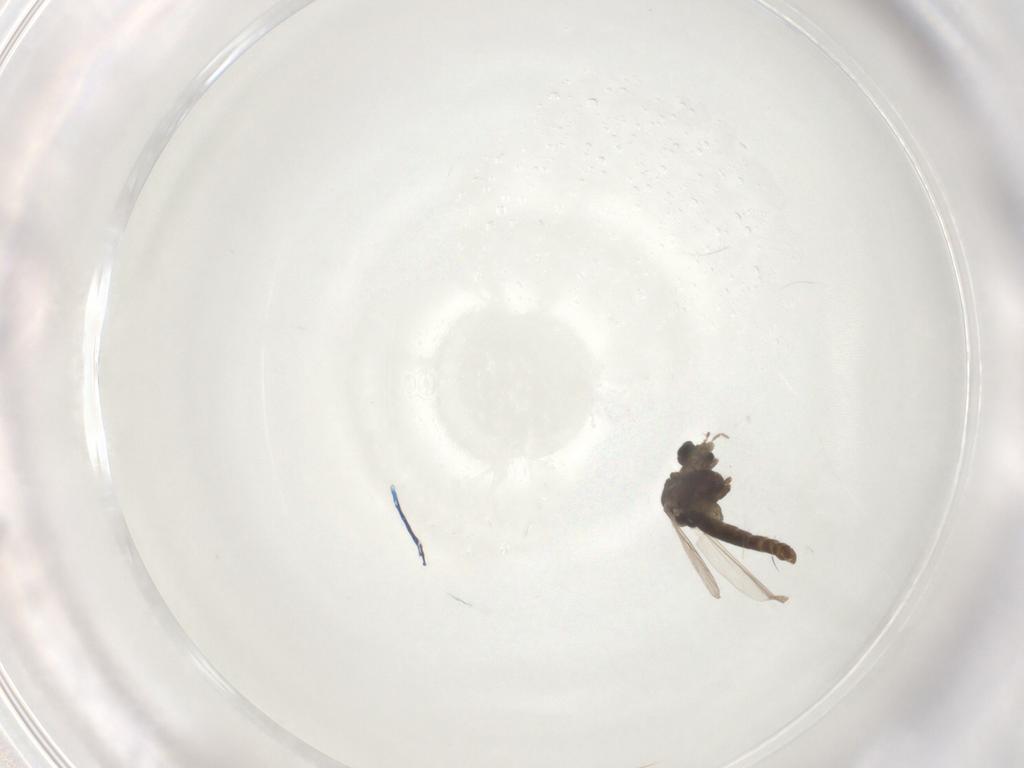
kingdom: Animalia
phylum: Arthropoda
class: Insecta
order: Diptera
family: Chironomidae
